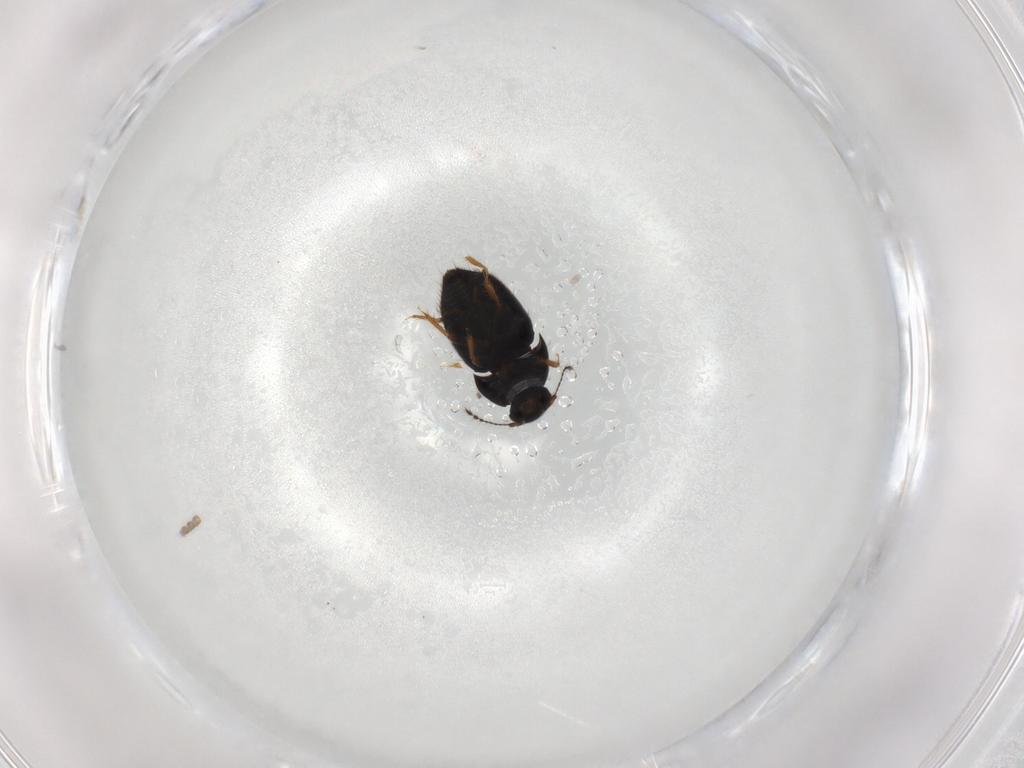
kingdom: Animalia
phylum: Arthropoda
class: Insecta
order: Coleoptera
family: Ptiliidae
